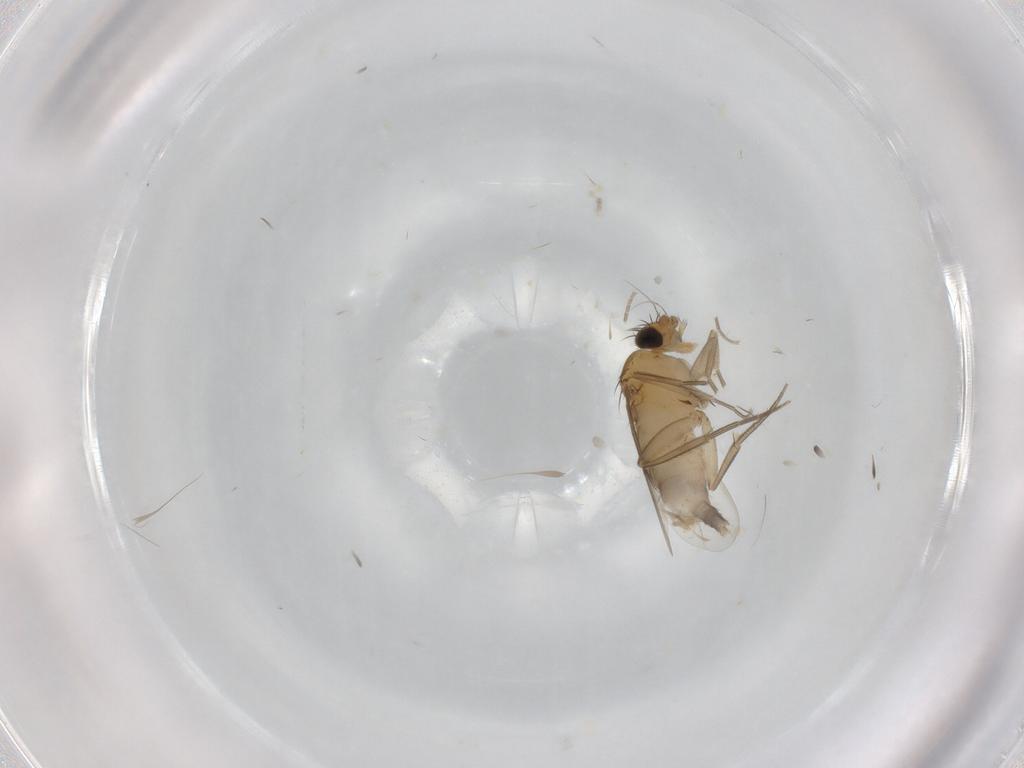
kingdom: Animalia
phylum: Arthropoda
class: Insecta
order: Diptera
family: Phoridae
